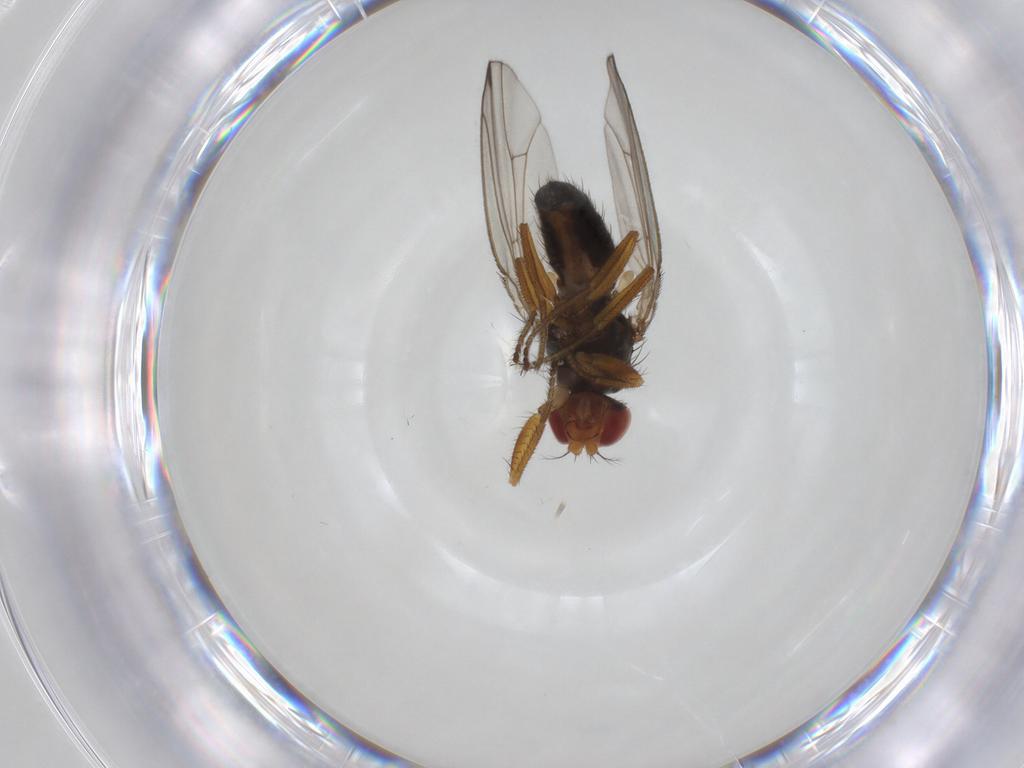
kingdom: Animalia
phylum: Arthropoda
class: Insecta
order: Diptera
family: Drosophilidae
